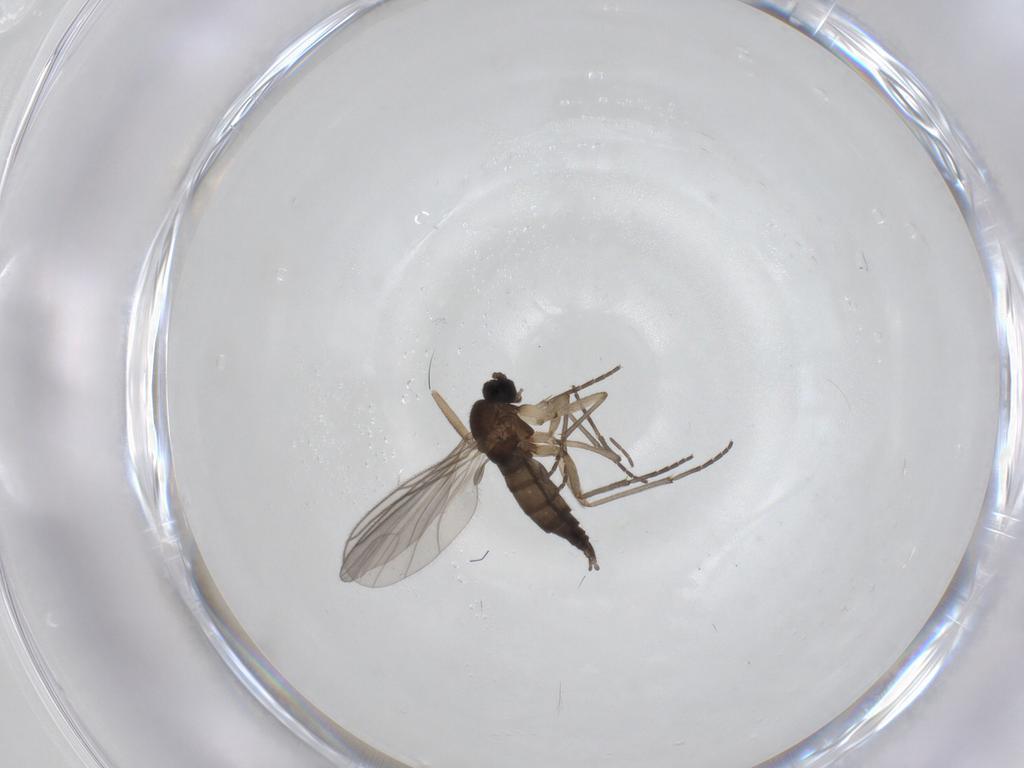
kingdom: Animalia
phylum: Arthropoda
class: Insecta
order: Diptera
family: Sciaridae
